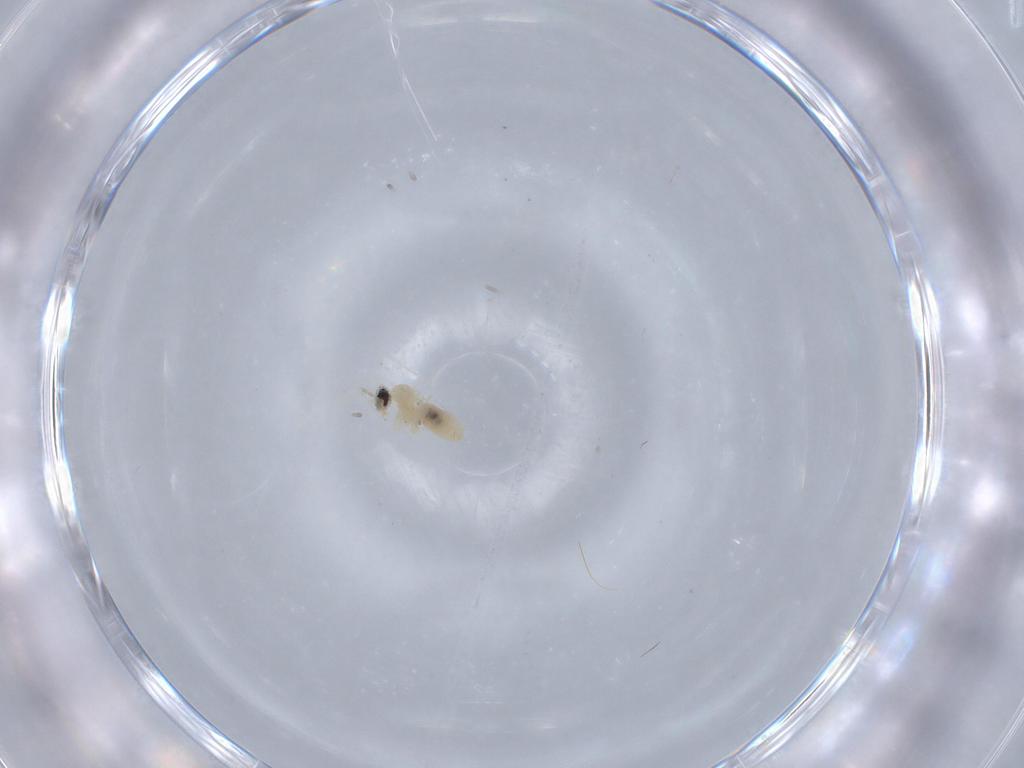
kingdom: Animalia
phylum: Arthropoda
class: Insecta
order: Diptera
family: Cecidomyiidae
